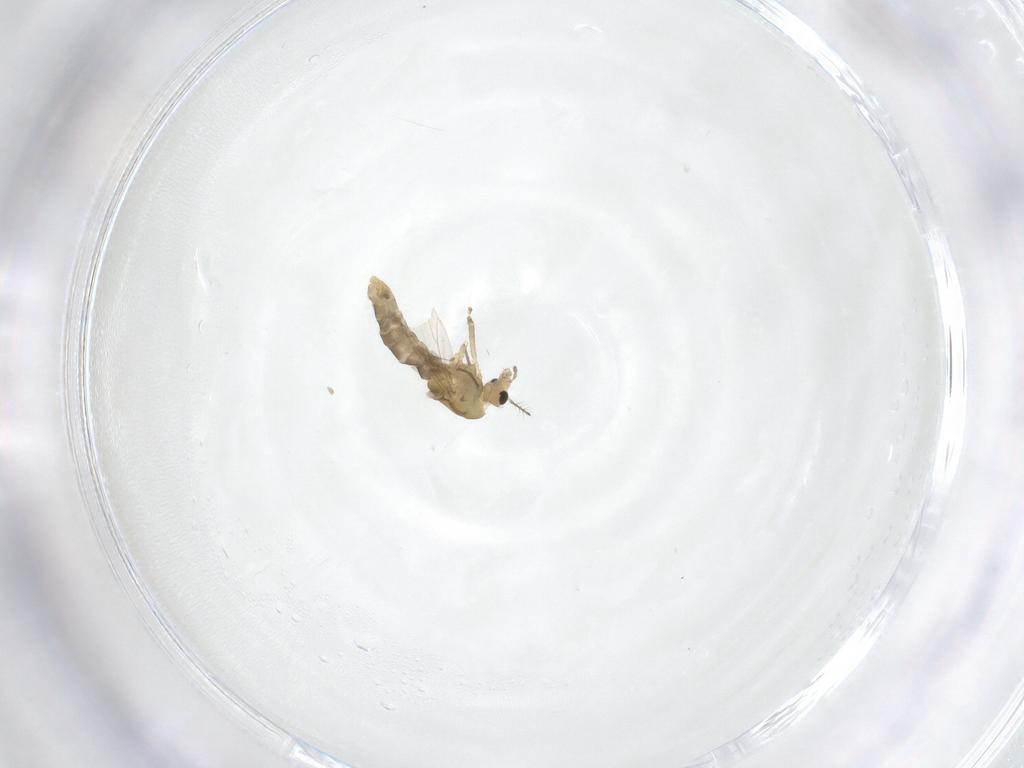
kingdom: Animalia
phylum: Arthropoda
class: Insecta
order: Diptera
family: Chironomidae
